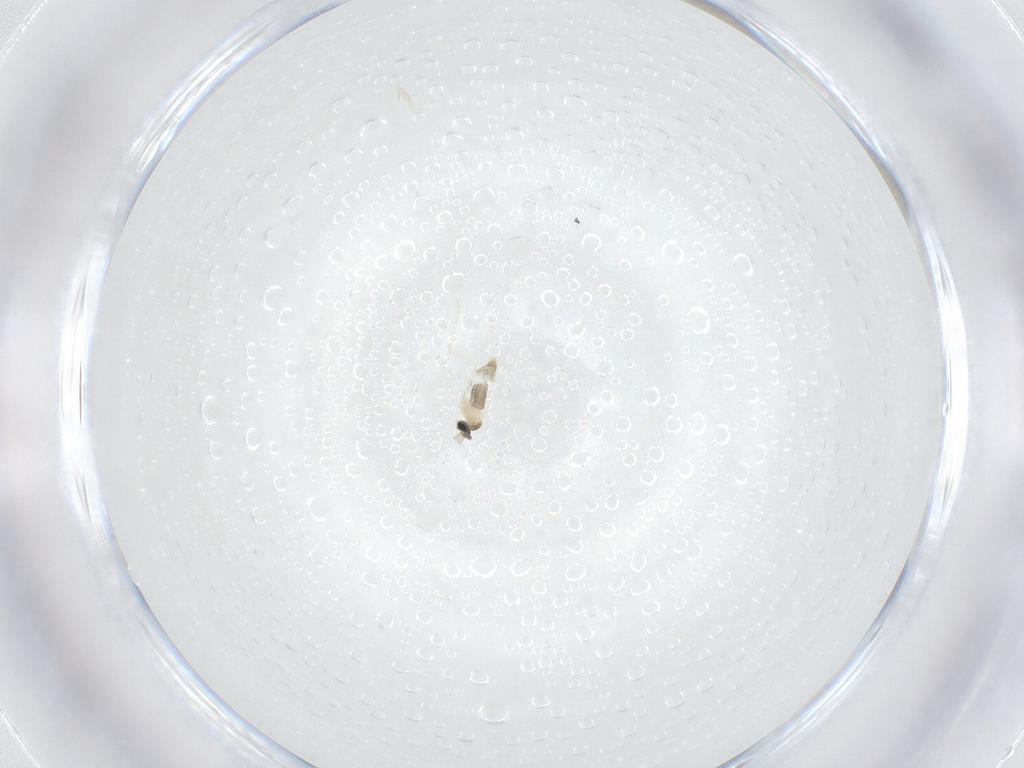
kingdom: Animalia
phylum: Arthropoda
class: Insecta
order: Diptera
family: Cecidomyiidae
